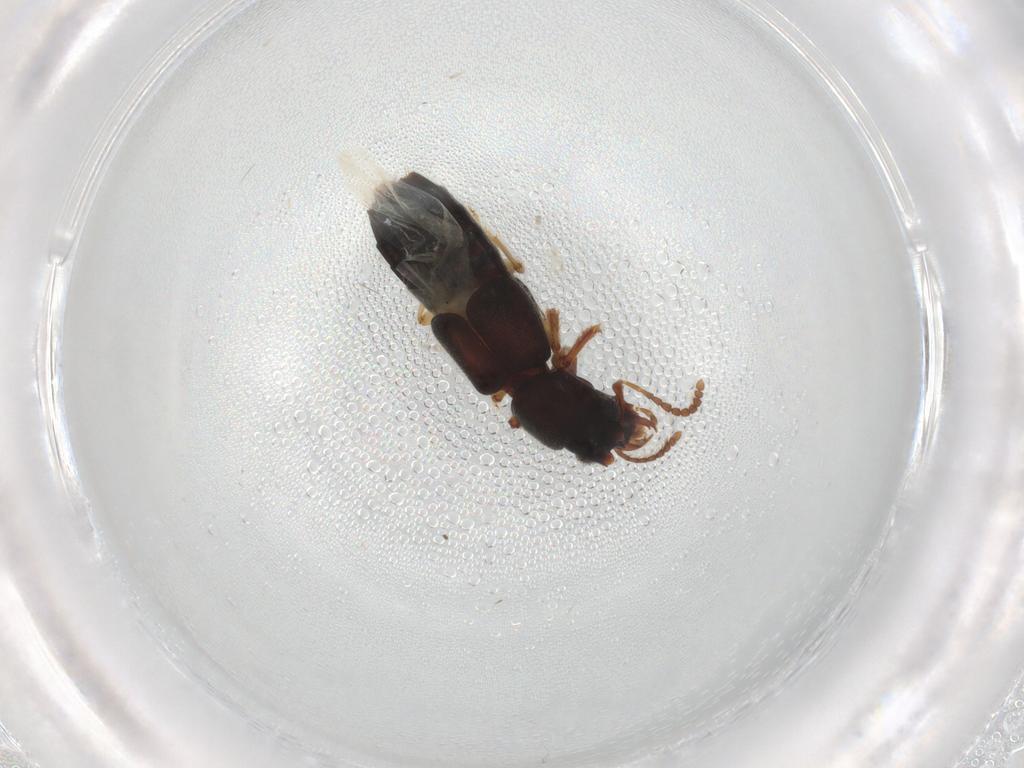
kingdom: Animalia
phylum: Arthropoda
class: Insecta
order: Coleoptera
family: Staphylinidae
